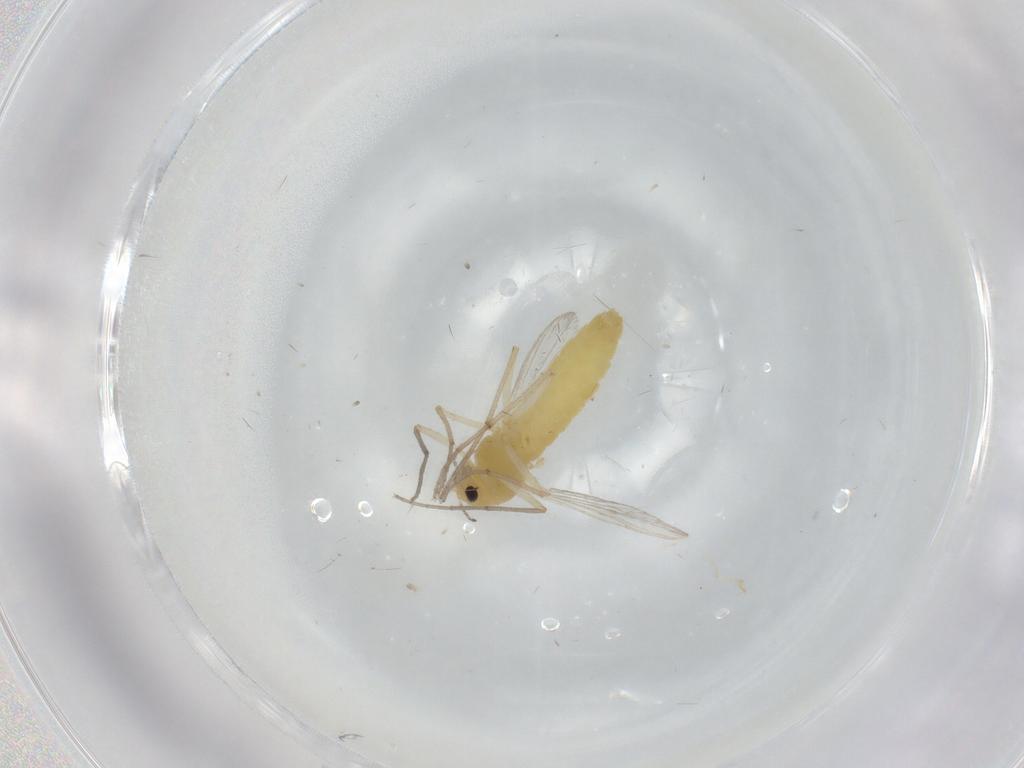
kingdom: Animalia
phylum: Arthropoda
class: Insecta
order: Diptera
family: Chironomidae
